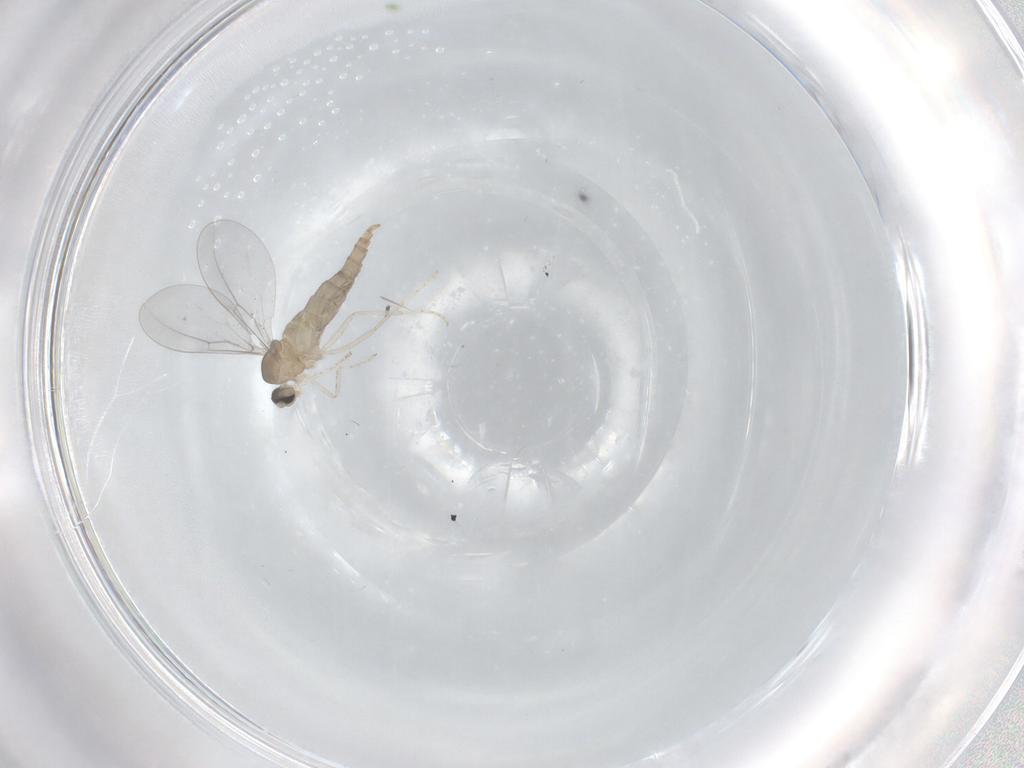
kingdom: Animalia
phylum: Arthropoda
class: Insecta
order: Diptera
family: Cecidomyiidae
